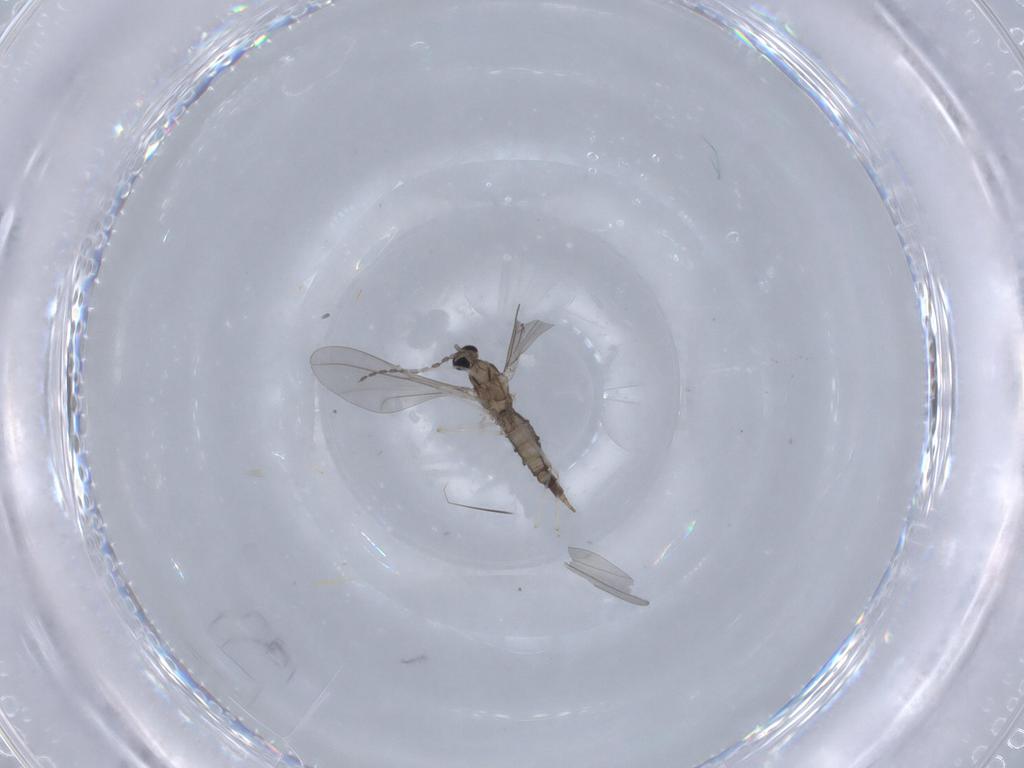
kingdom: Animalia
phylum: Arthropoda
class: Insecta
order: Diptera
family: Cecidomyiidae
